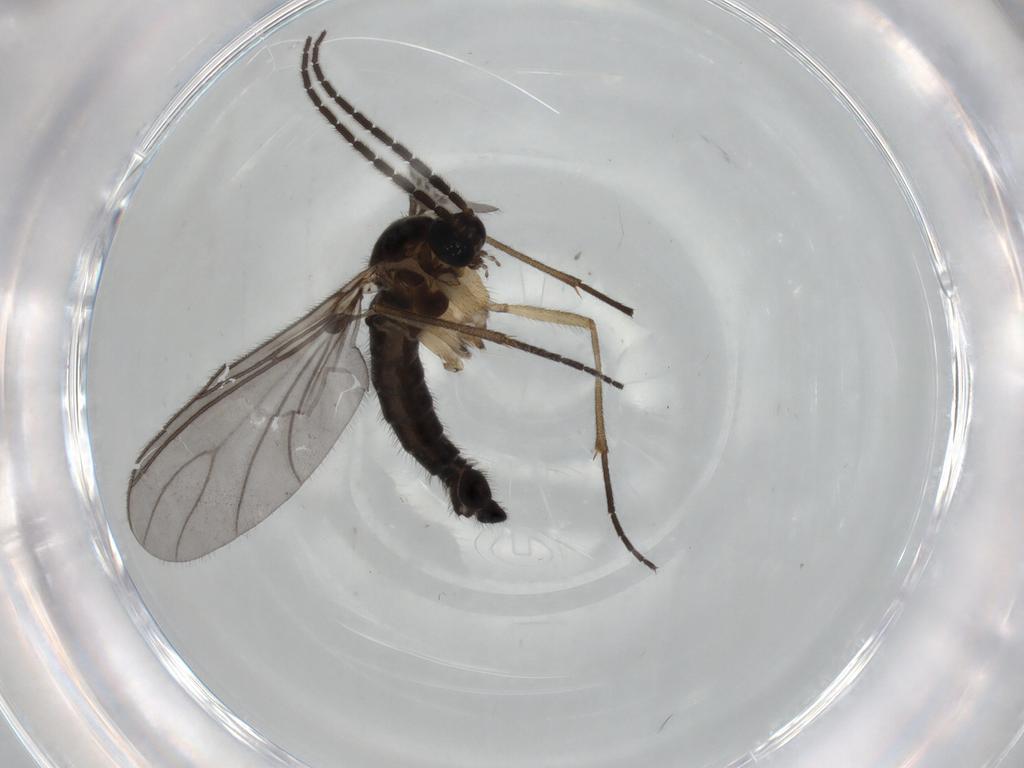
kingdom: Animalia
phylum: Arthropoda
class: Insecta
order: Diptera
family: Sciaridae
